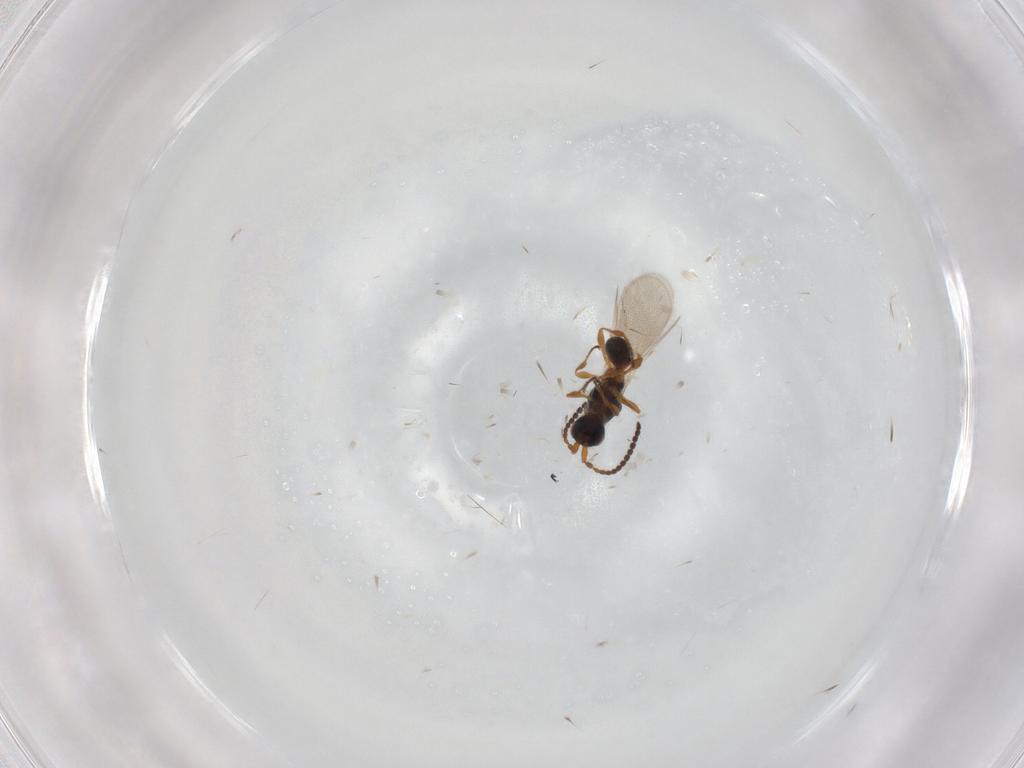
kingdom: Animalia
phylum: Arthropoda
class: Insecta
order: Hymenoptera
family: Diapriidae
